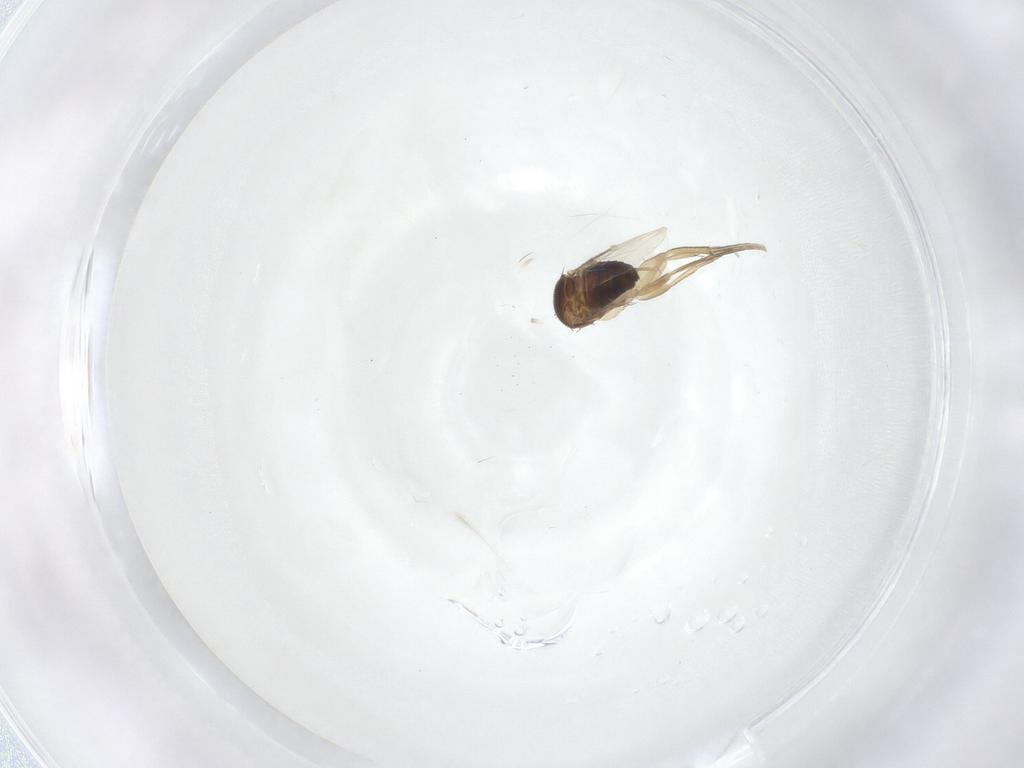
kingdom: Animalia
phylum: Arthropoda
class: Insecta
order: Diptera
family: Phoridae
